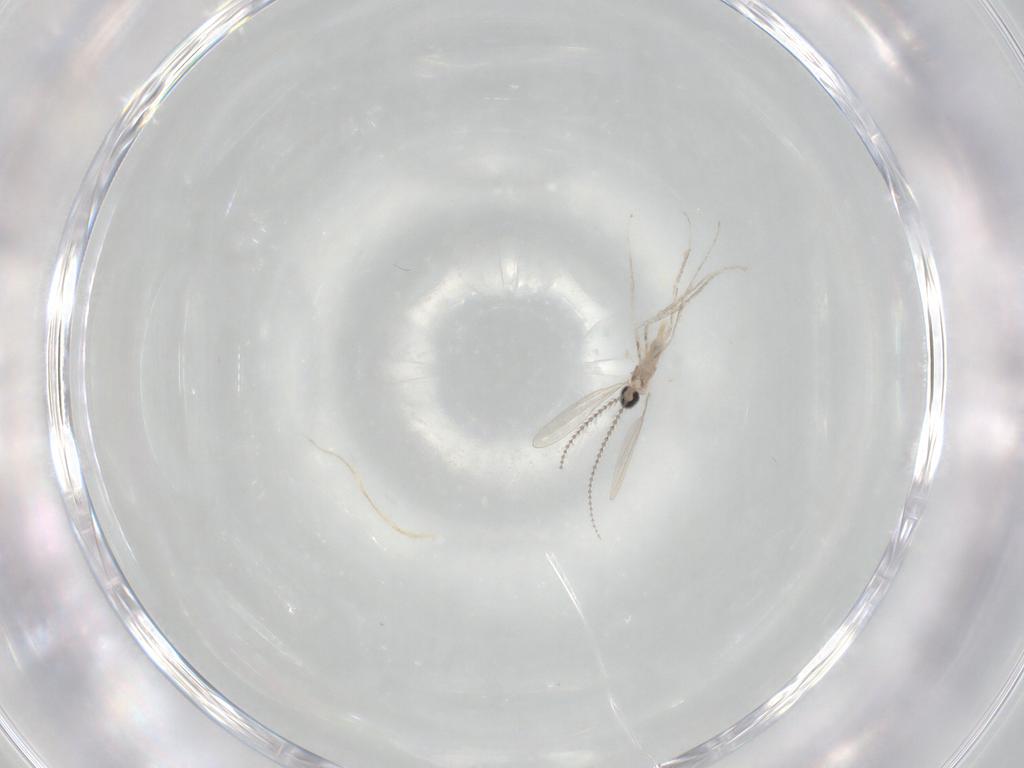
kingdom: Animalia
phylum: Arthropoda
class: Insecta
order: Diptera
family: Cecidomyiidae
